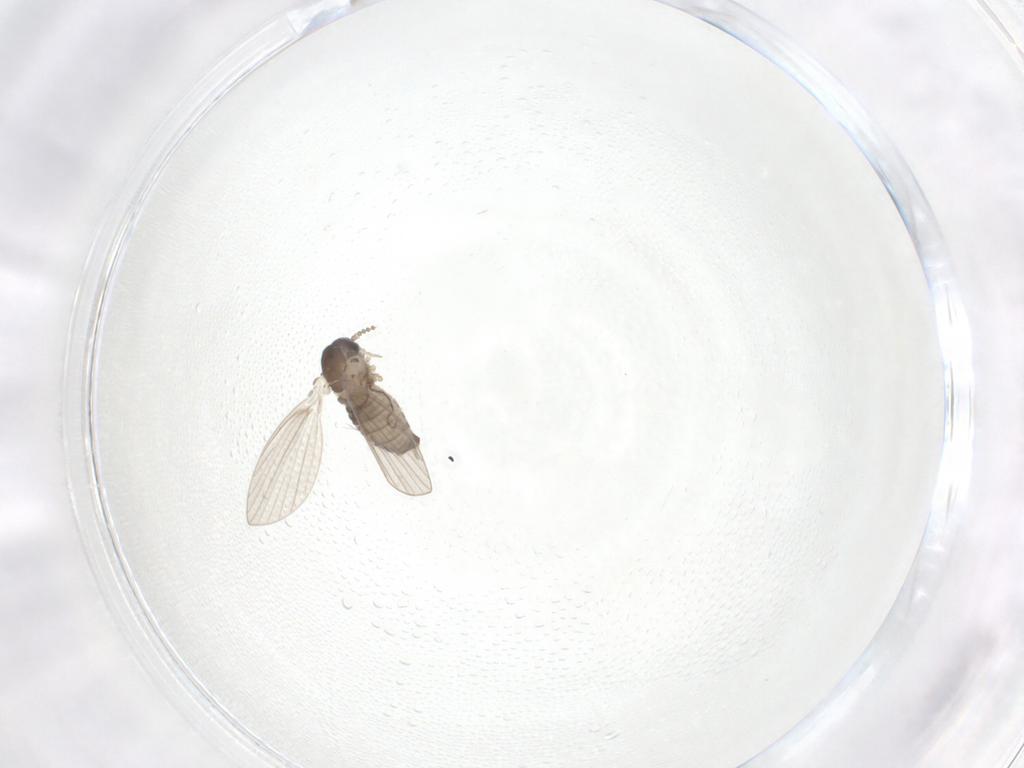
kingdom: Animalia
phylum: Arthropoda
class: Insecta
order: Diptera
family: Psychodidae
